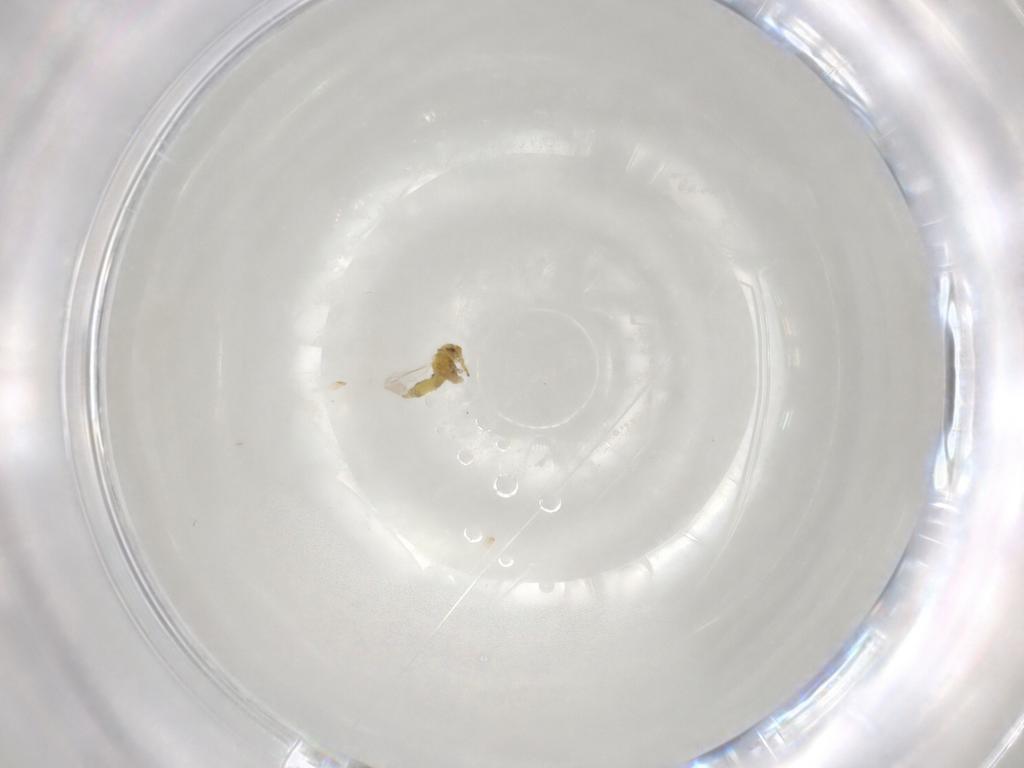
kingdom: Animalia
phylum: Arthropoda
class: Insecta
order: Hemiptera
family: Aleyrodidae
